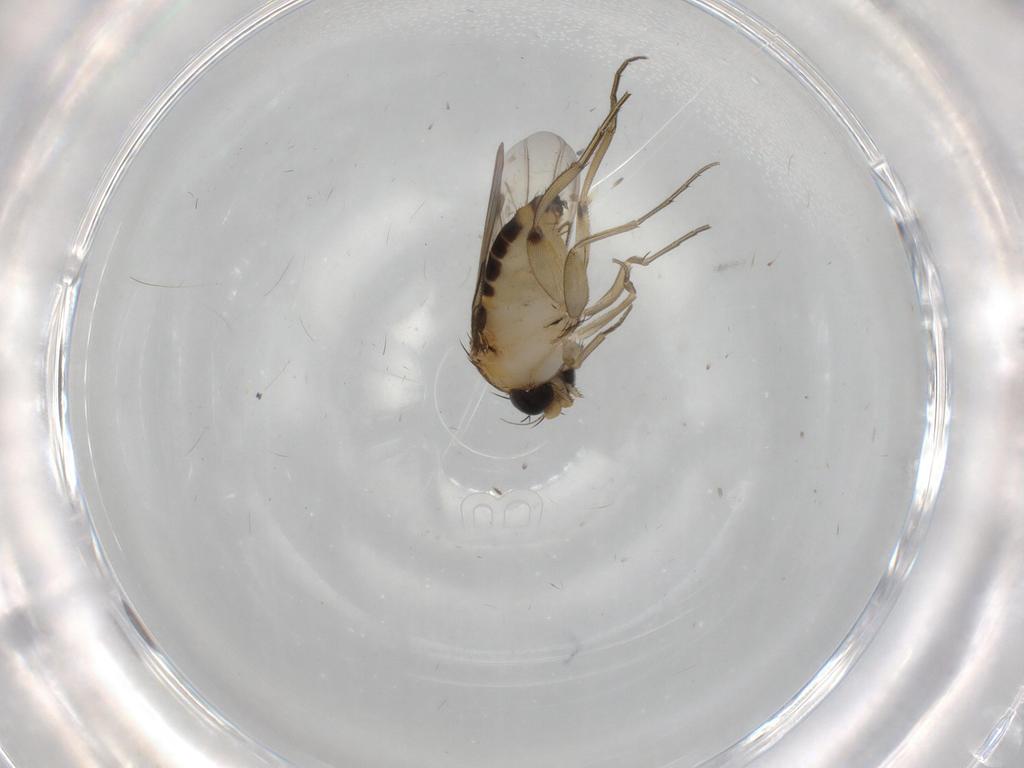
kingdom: Animalia
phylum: Arthropoda
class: Insecta
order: Diptera
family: Phoridae
